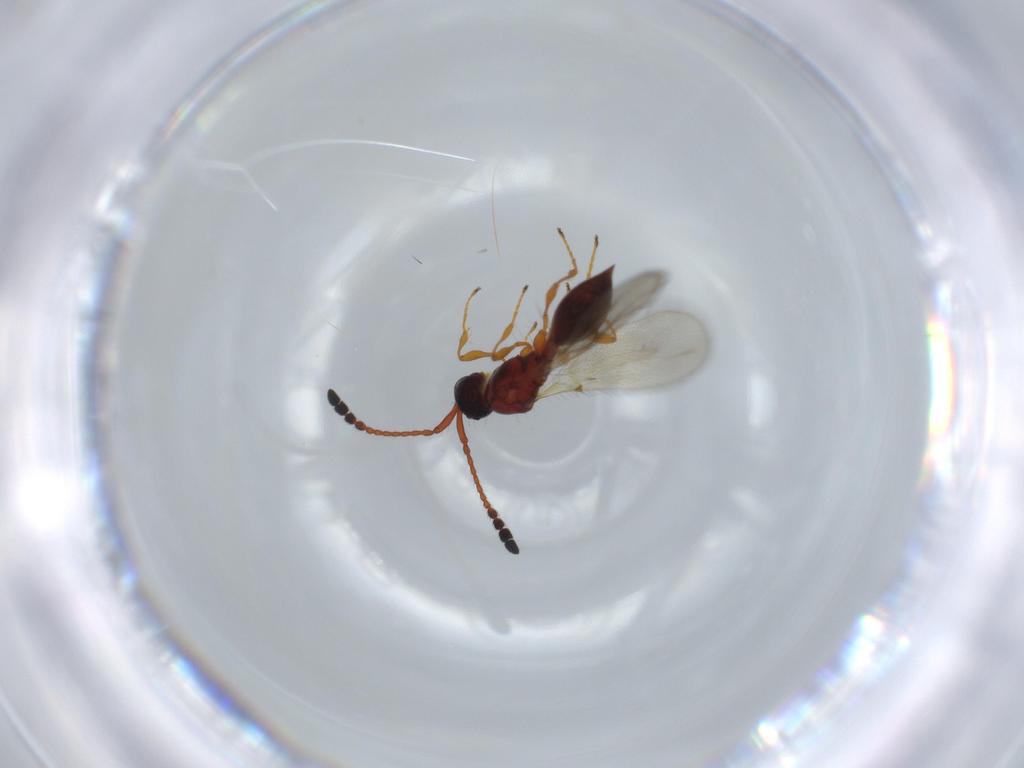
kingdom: Animalia
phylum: Arthropoda
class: Insecta
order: Hymenoptera
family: Diapriidae
